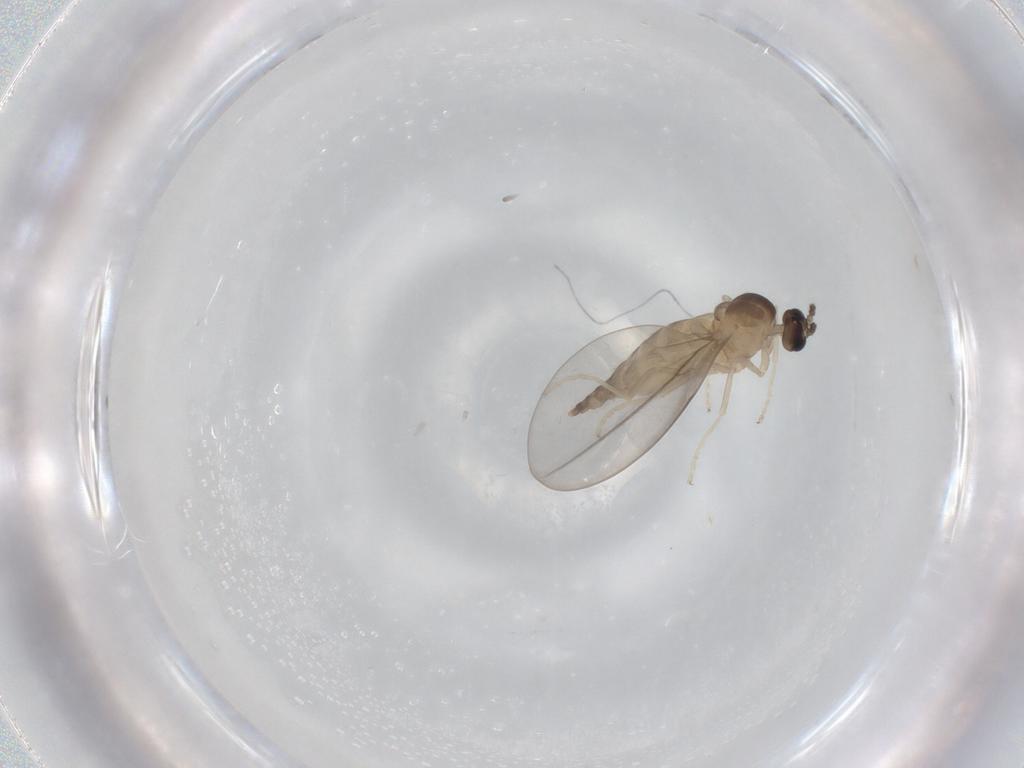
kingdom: Animalia
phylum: Arthropoda
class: Insecta
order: Diptera
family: Cecidomyiidae
